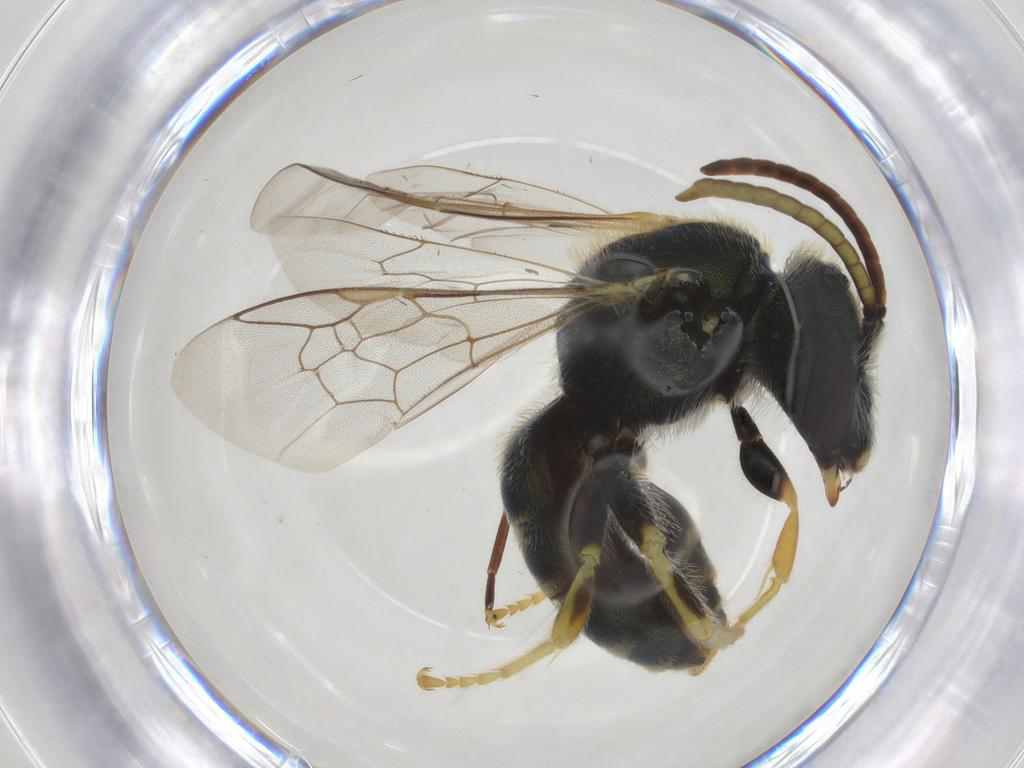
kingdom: Animalia
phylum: Arthropoda
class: Insecta
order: Hymenoptera
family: Halictidae
